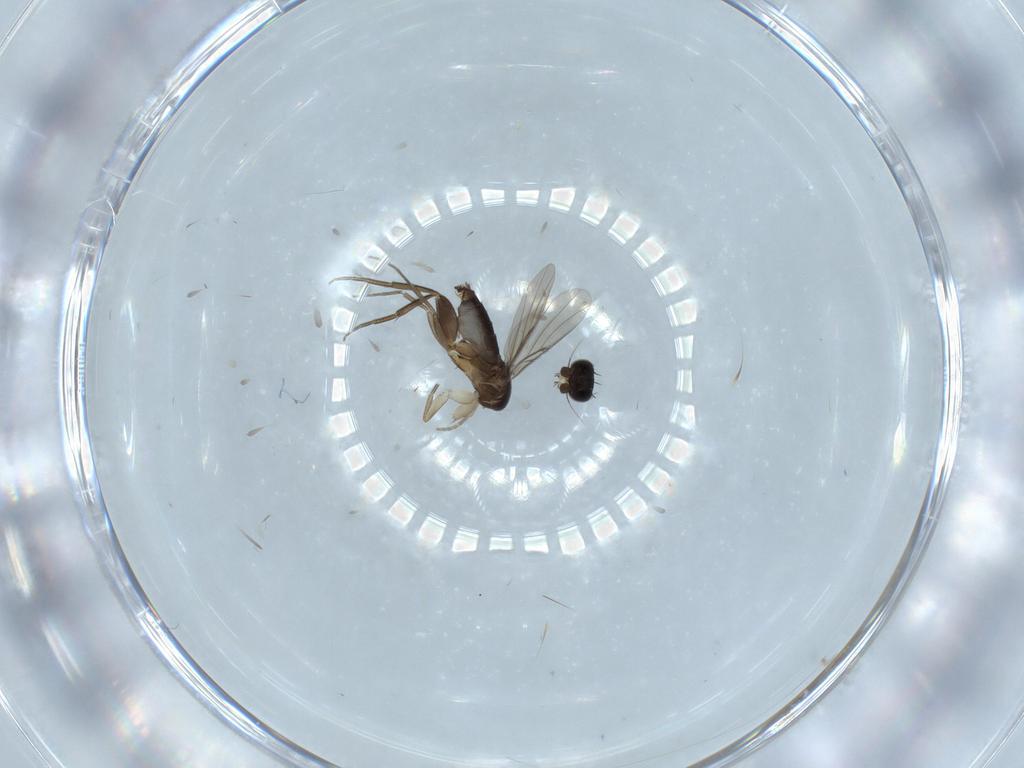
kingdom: Animalia
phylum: Arthropoda
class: Insecta
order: Diptera
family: Phoridae
